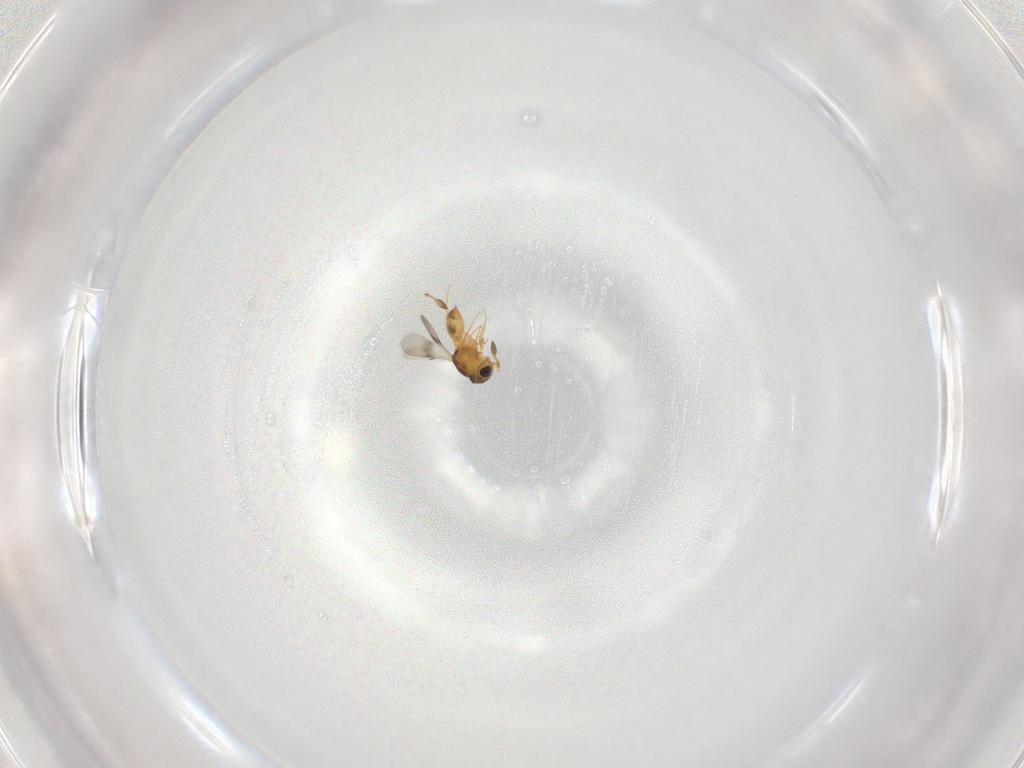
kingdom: Animalia
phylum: Arthropoda
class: Insecta
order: Hymenoptera
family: Scelionidae
